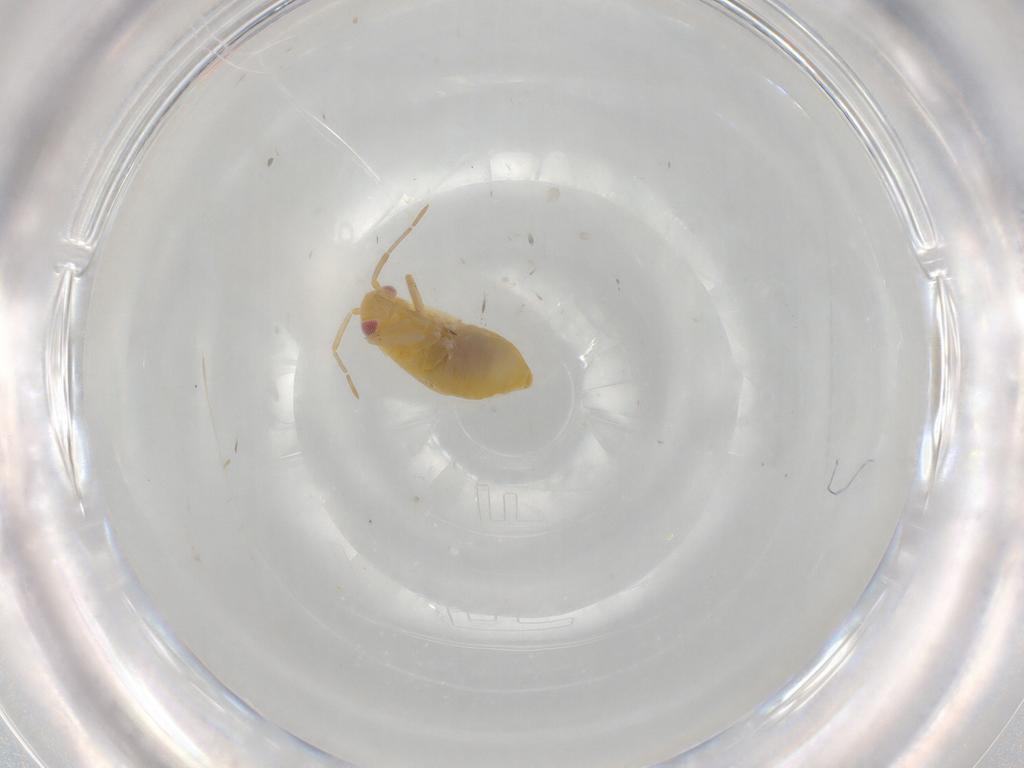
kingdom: Animalia
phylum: Arthropoda
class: Insecta
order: Hemiptera
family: Miridae
